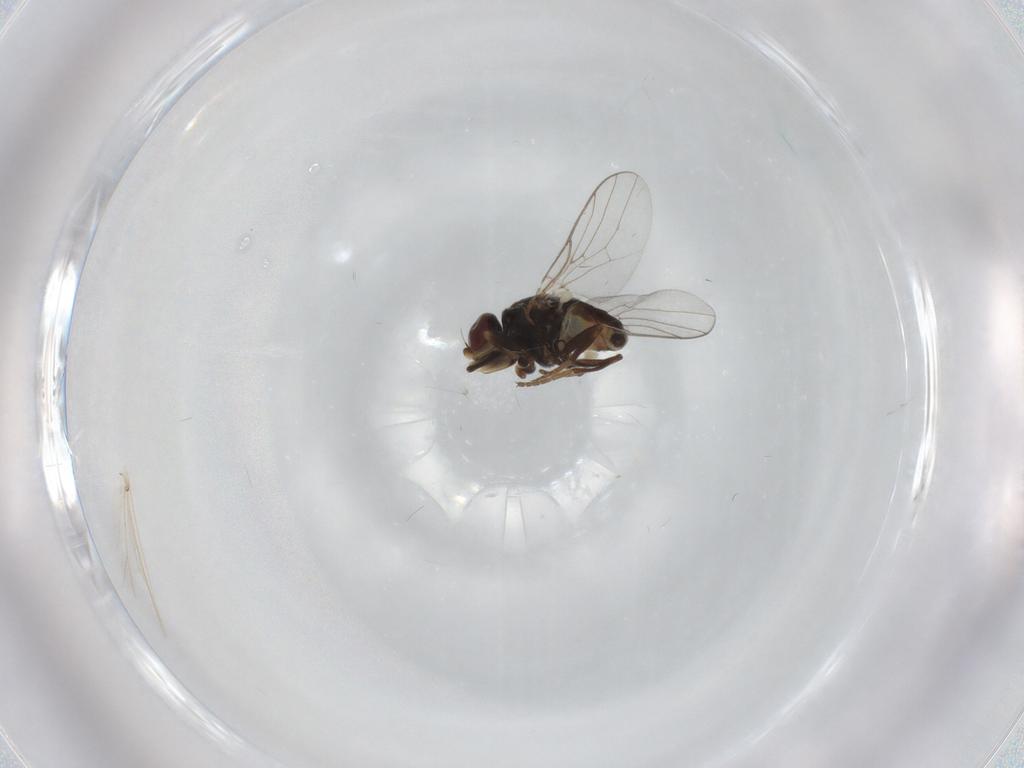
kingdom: Animalia
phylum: Arthropoda
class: Insecta
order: Diptera
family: Chloropidae
